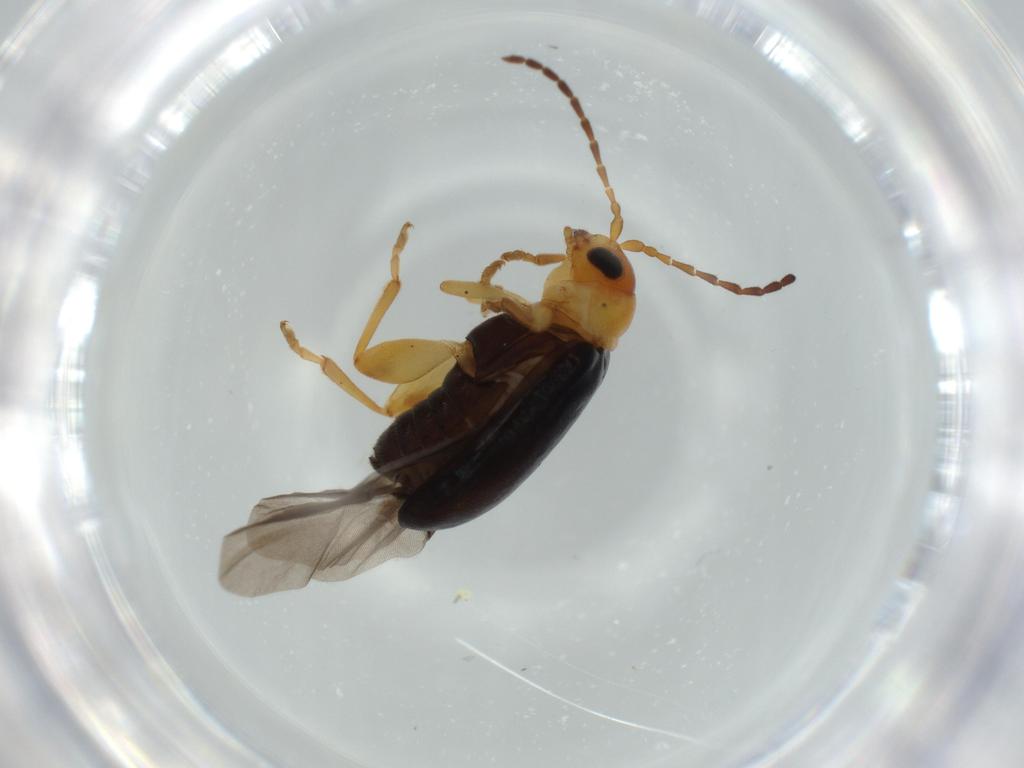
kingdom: Animalia
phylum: Arthropoda
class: Insecta
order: Coleoptera
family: Chrysomelidae
